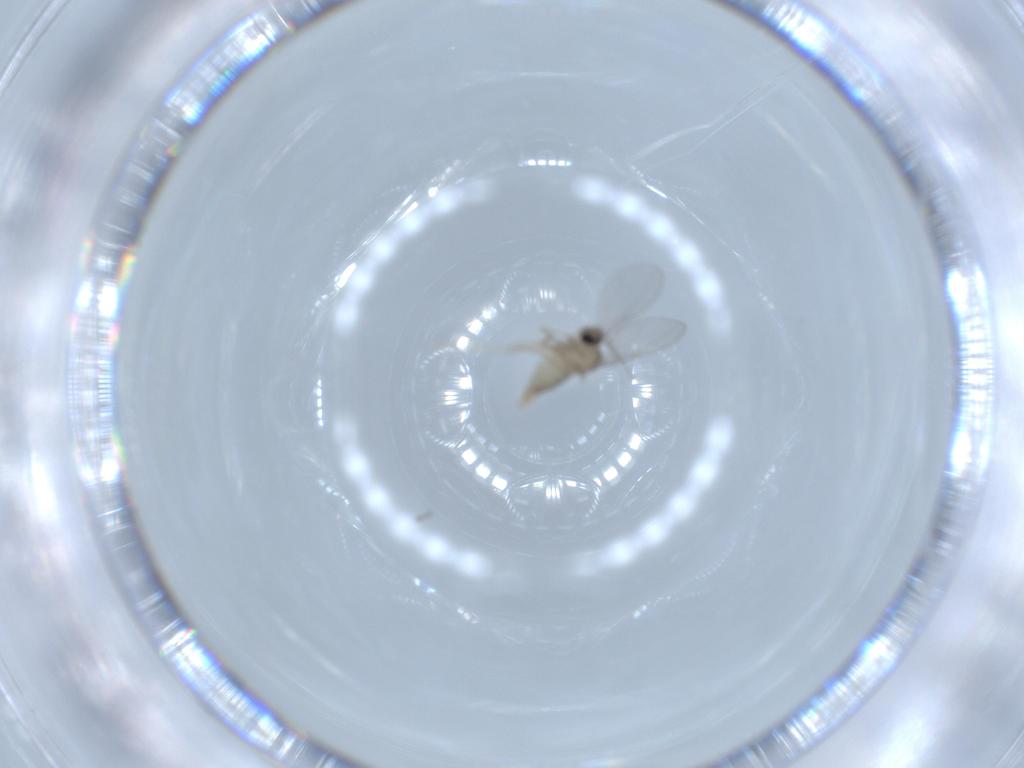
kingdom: Animalia
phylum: Arthropoda
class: Insecta
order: Diptera
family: Cecidomyiidae
